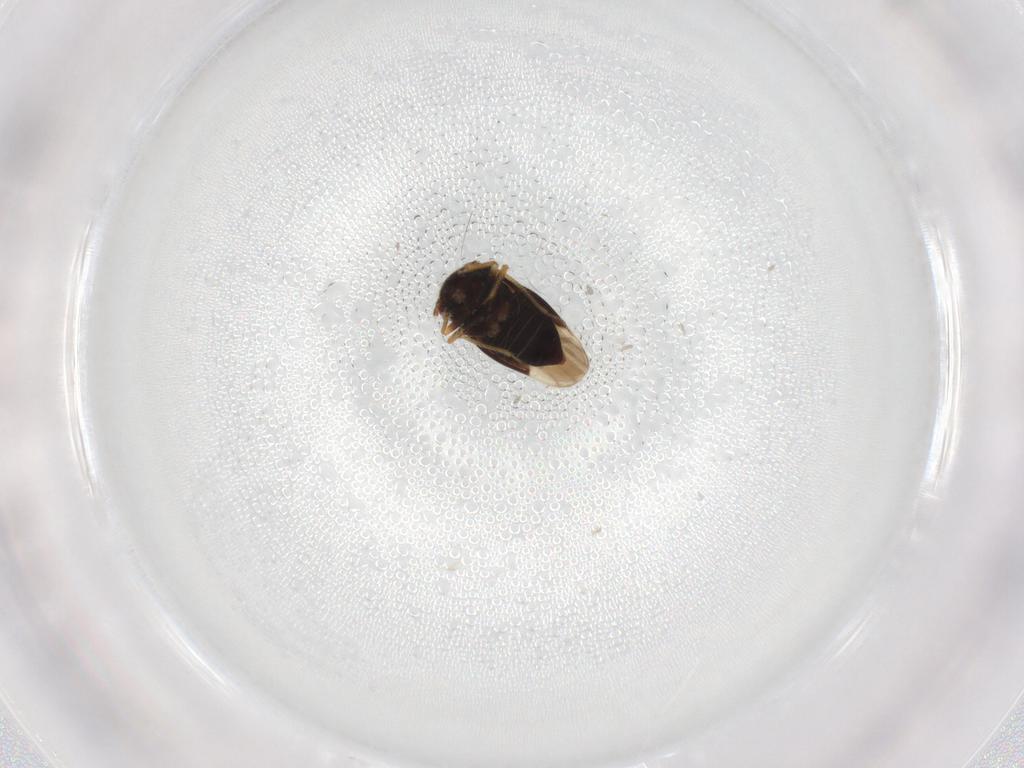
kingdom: Animalia
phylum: Arthropoda
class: Insecta
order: Hemiptera
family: Schizopteridae
